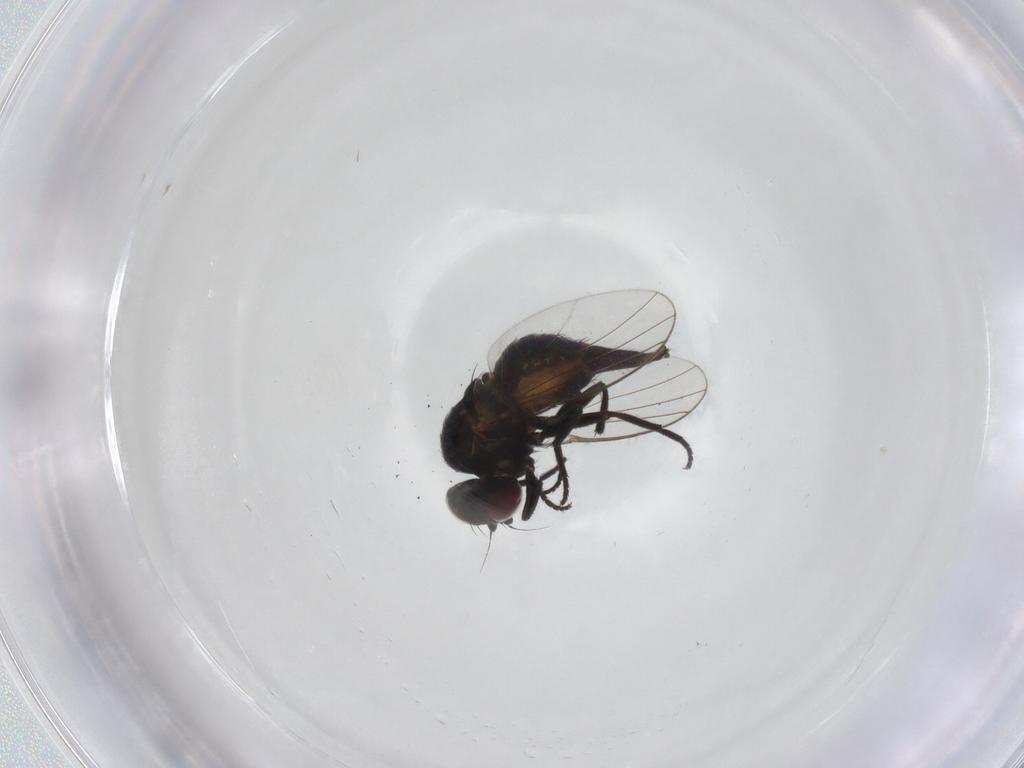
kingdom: Animalia
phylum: Arthropoda
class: Insecta
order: Diptera
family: Agromyzidae
